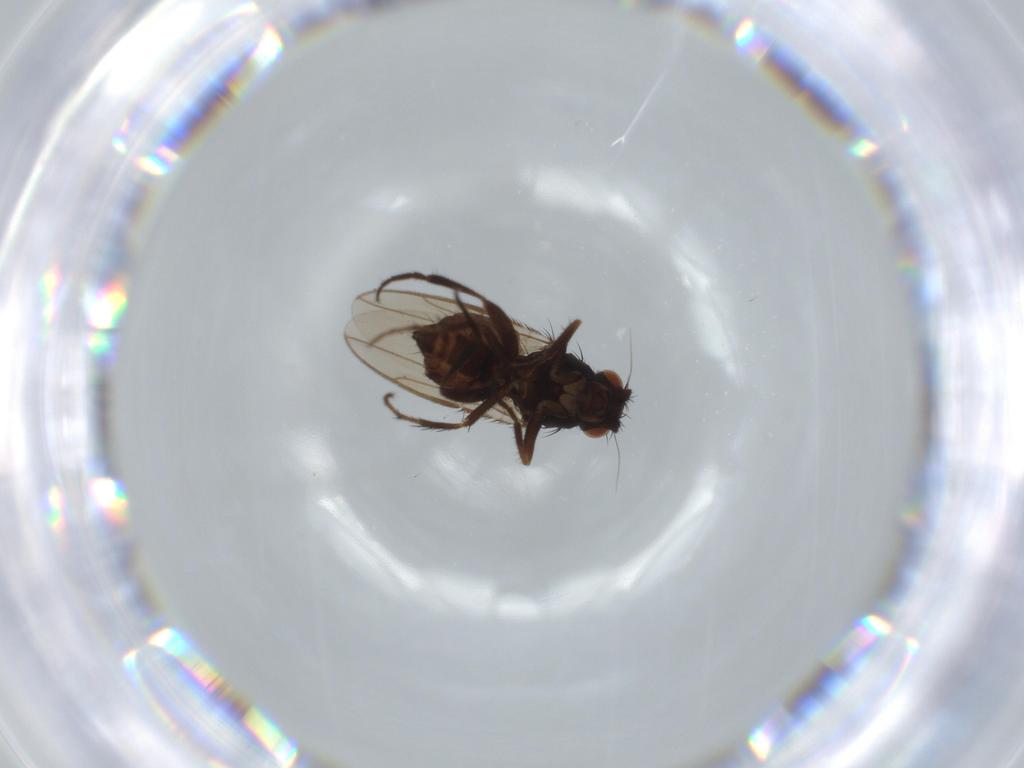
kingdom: Animalia
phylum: Arthropoda
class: Insecta
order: Diptera
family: Sphaeroceridae
